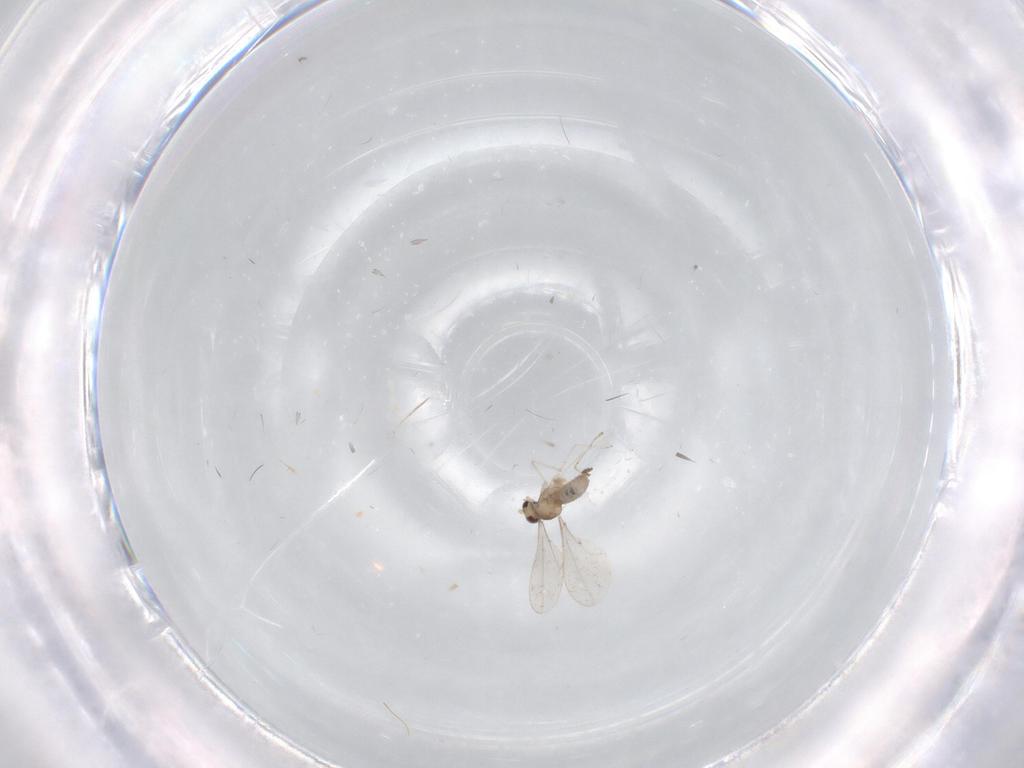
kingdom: Animalia
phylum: Arthropoda
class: Insecta
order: Diptera
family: Cecidomyiidae
